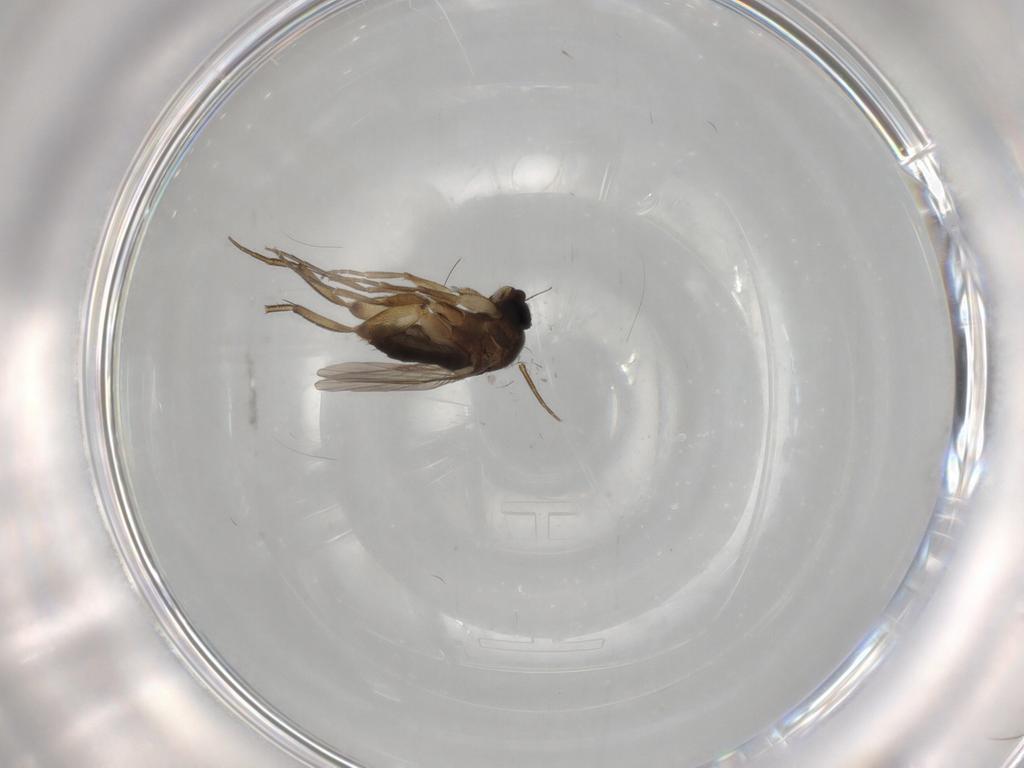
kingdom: Animalia
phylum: Arthropoda
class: Insecta
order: Diptera
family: Phoridae
